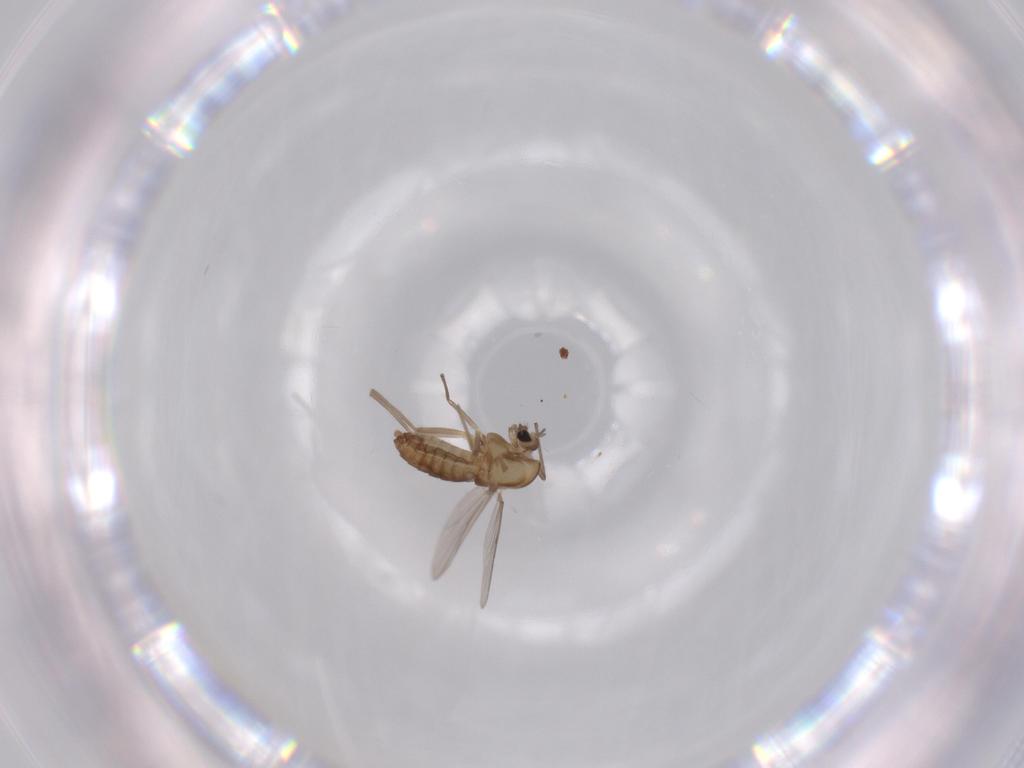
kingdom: Animalia
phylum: Arthropoda
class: Insecta
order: Diptera
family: Chironomidae
